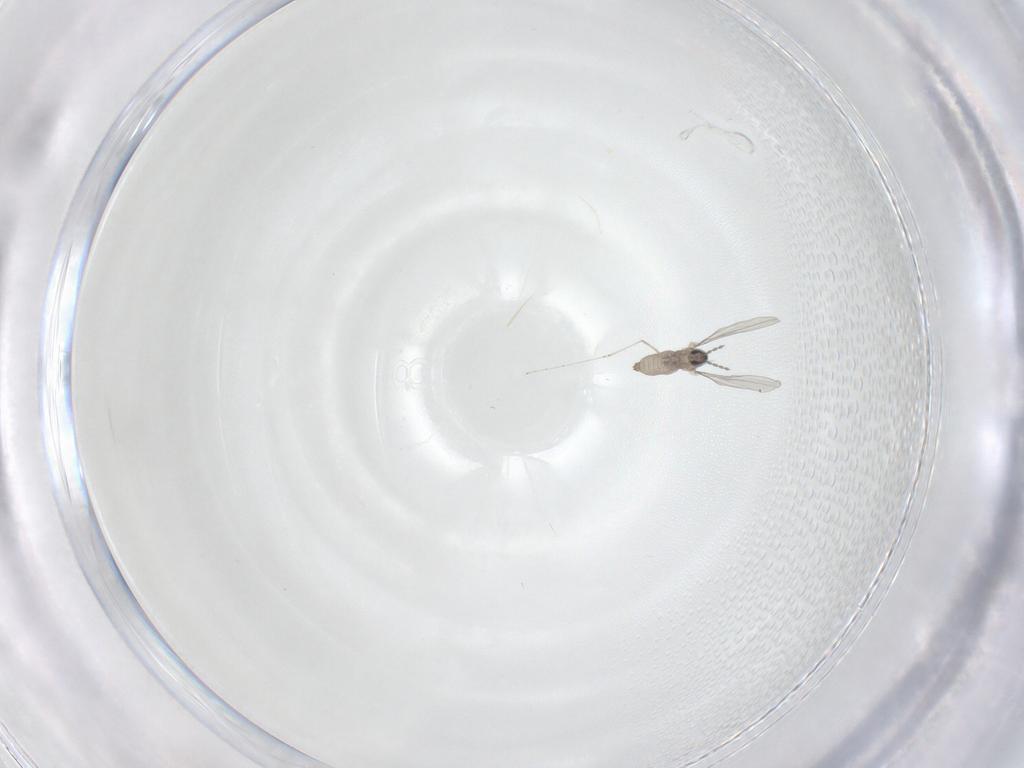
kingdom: Animalia
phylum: Arthropoda
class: Insecta
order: Diptera
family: Cecidomyiidae
